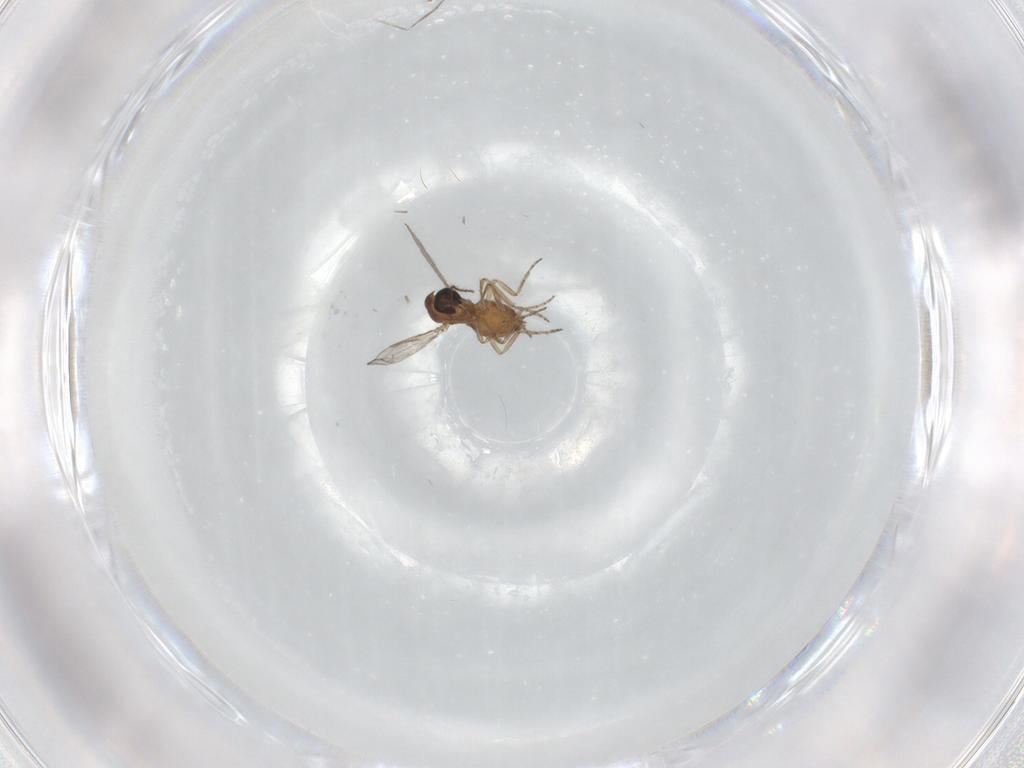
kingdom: Animalia
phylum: Arthropoda
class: Insecta
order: Diptera
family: Muscidae
